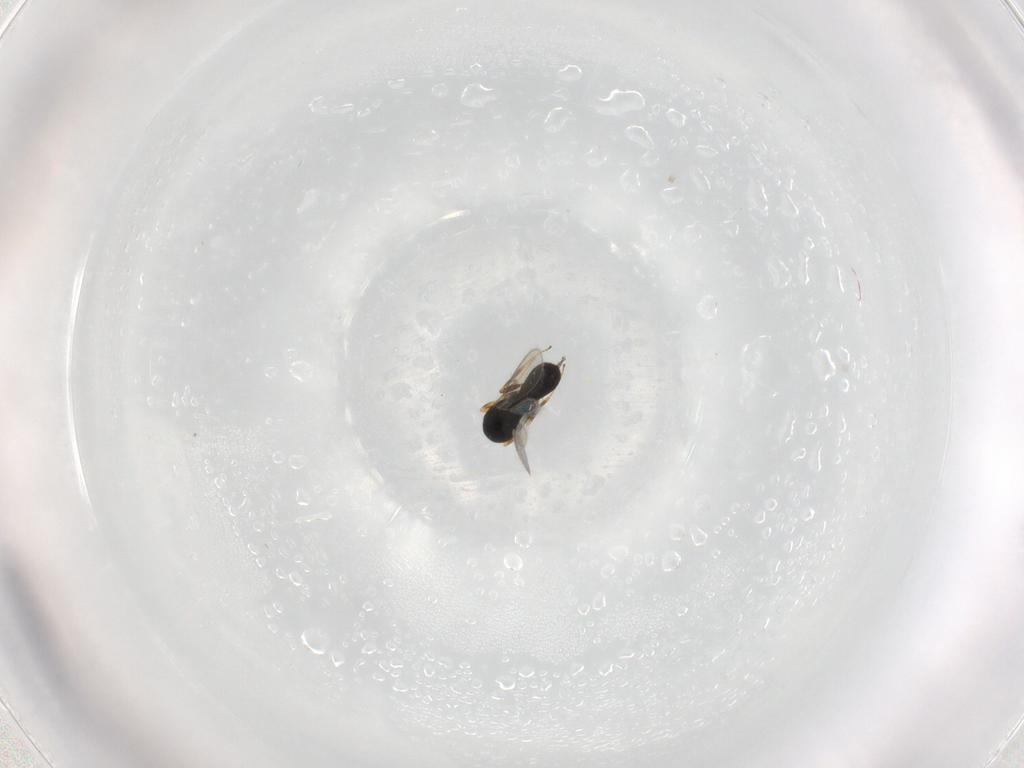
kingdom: Animalia
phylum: Arthropoda
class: Insecta
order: Hymenoptera
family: Scelionidae
